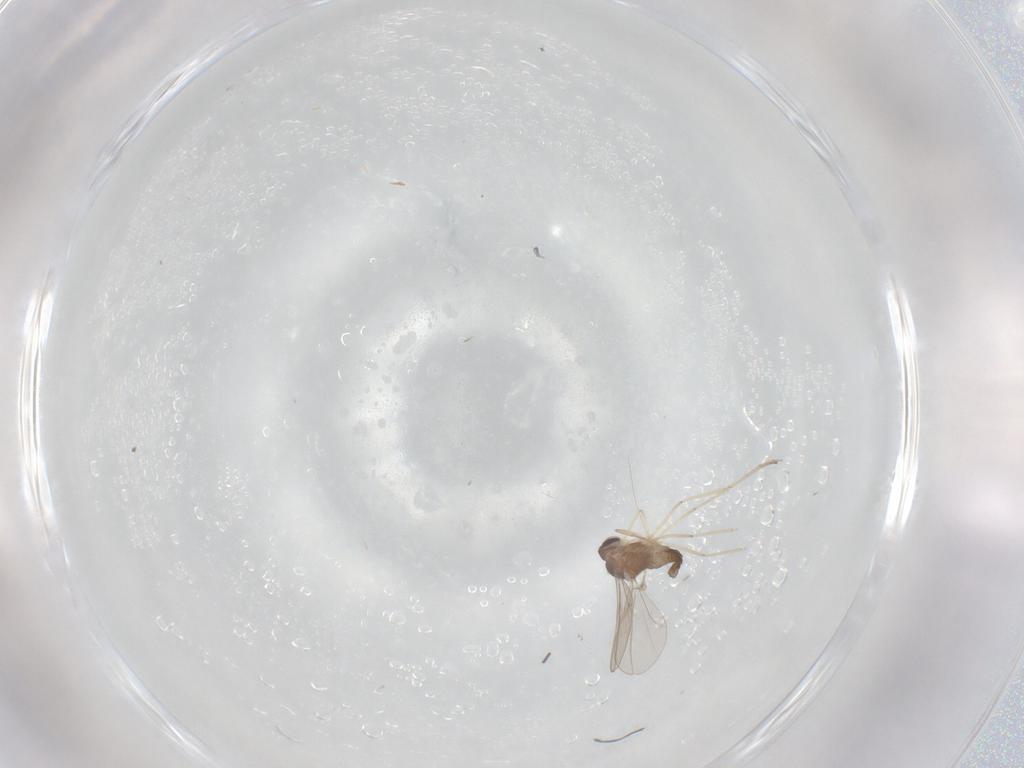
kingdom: Animalia
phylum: Arthropoda
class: Insecta
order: Diptera
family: Cecidomyiidae
